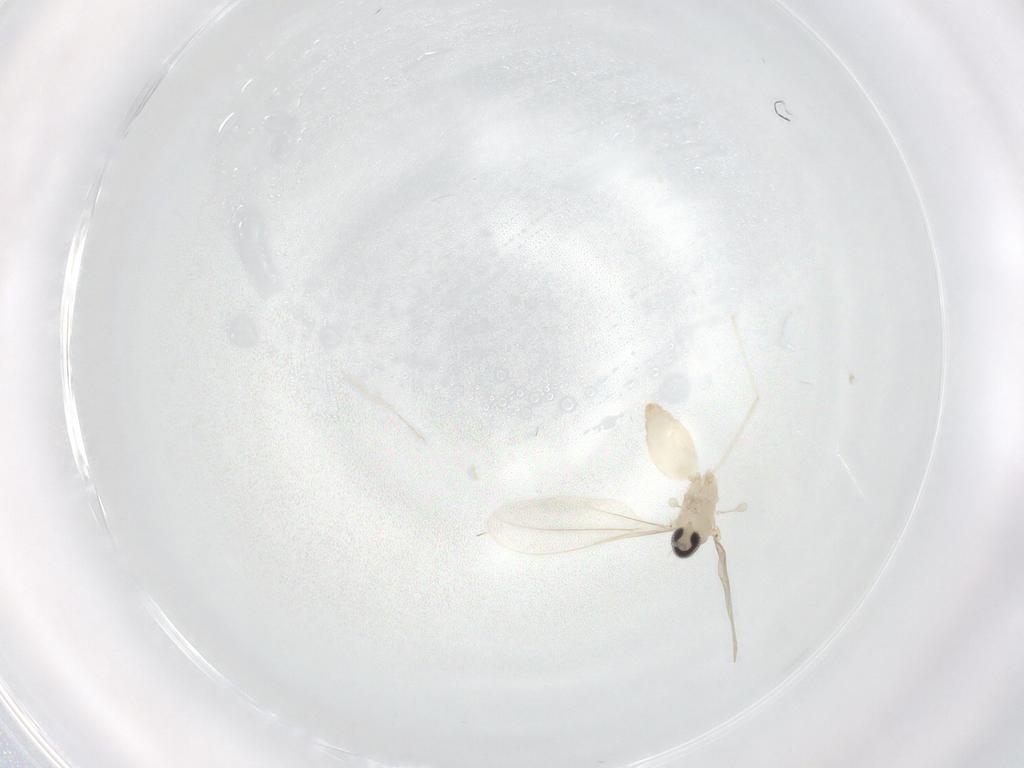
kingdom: Animalia
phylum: Arthropoda
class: Insecta
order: Diptera
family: Cecidomyiidae
